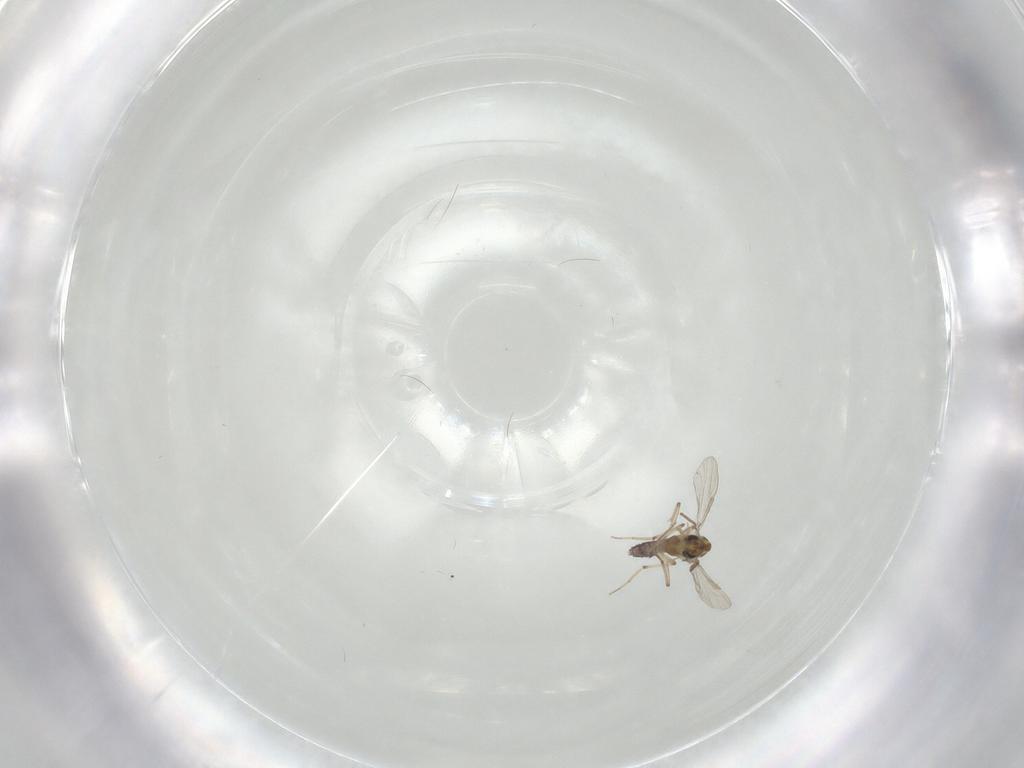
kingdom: Animalia
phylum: Arthropoda
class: Insecta
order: Diptera
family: Chironomidae
